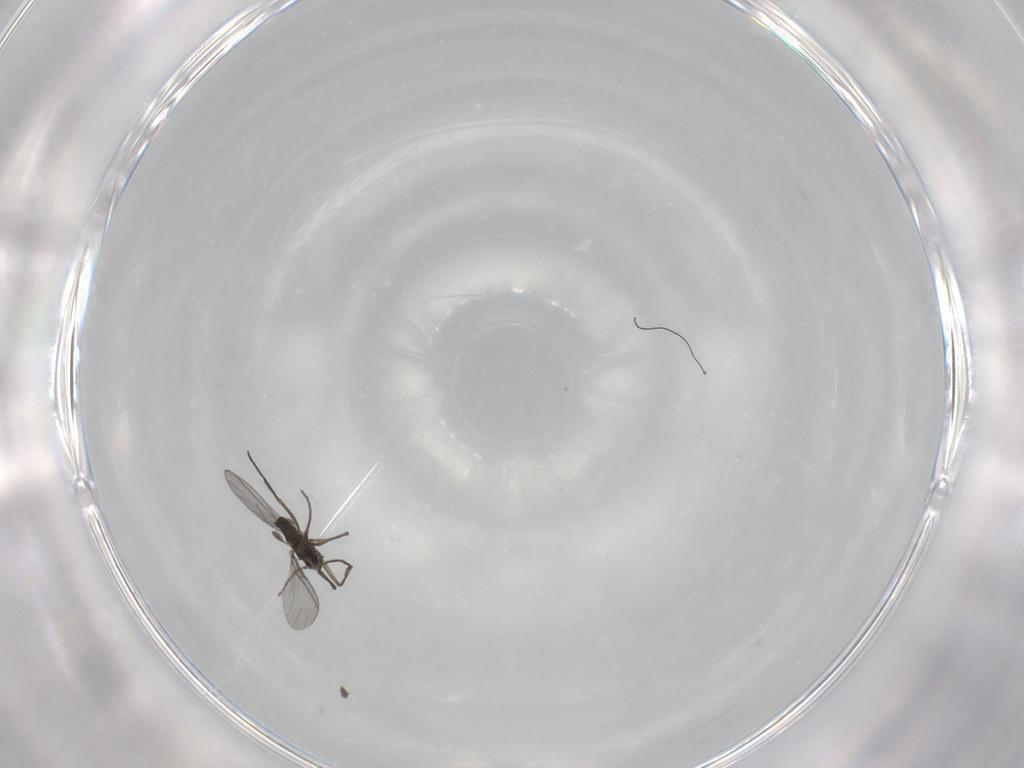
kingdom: Animalia
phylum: Arthropoda
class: Insecta
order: Diptera
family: Sciaridae
